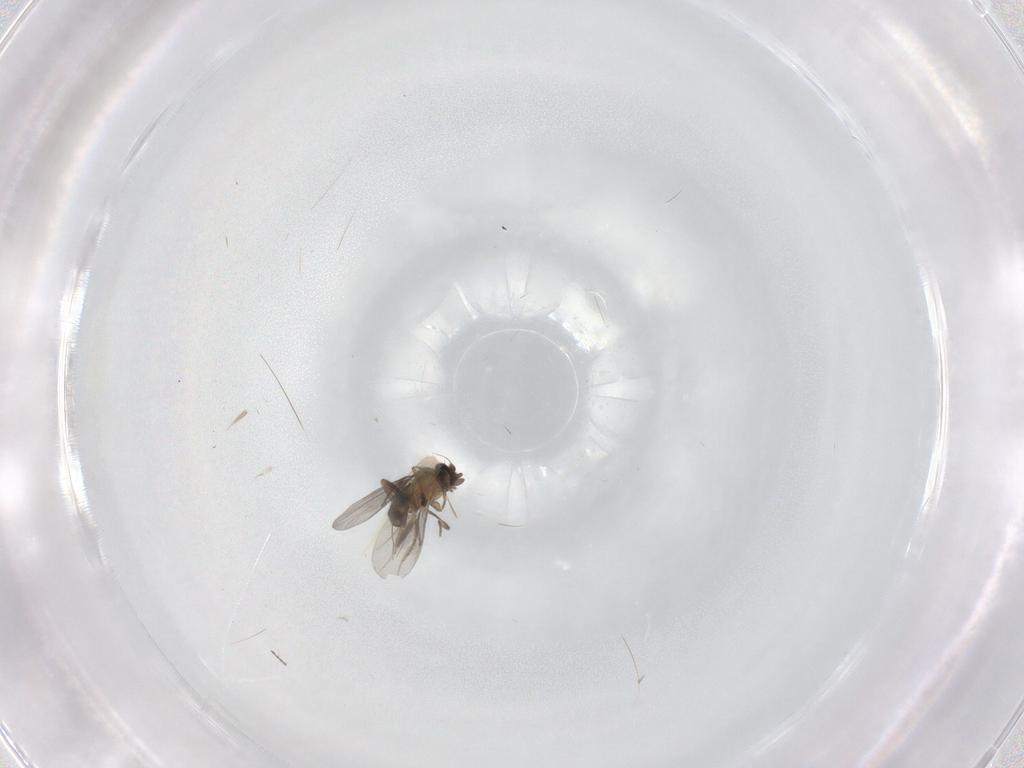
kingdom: Animalia
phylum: Arthropoda
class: Insecta
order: Diptera
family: Chironomidae
